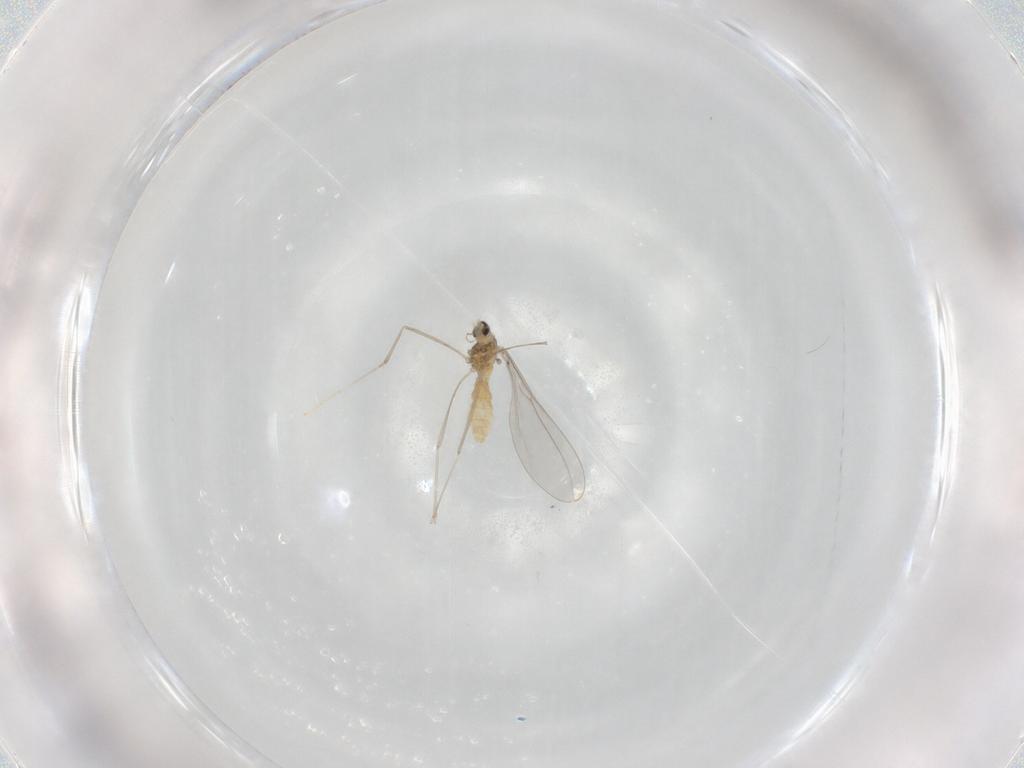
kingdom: Animalia
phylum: Arthropoda
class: Insecta
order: Diptera
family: Cecidomyiidae
